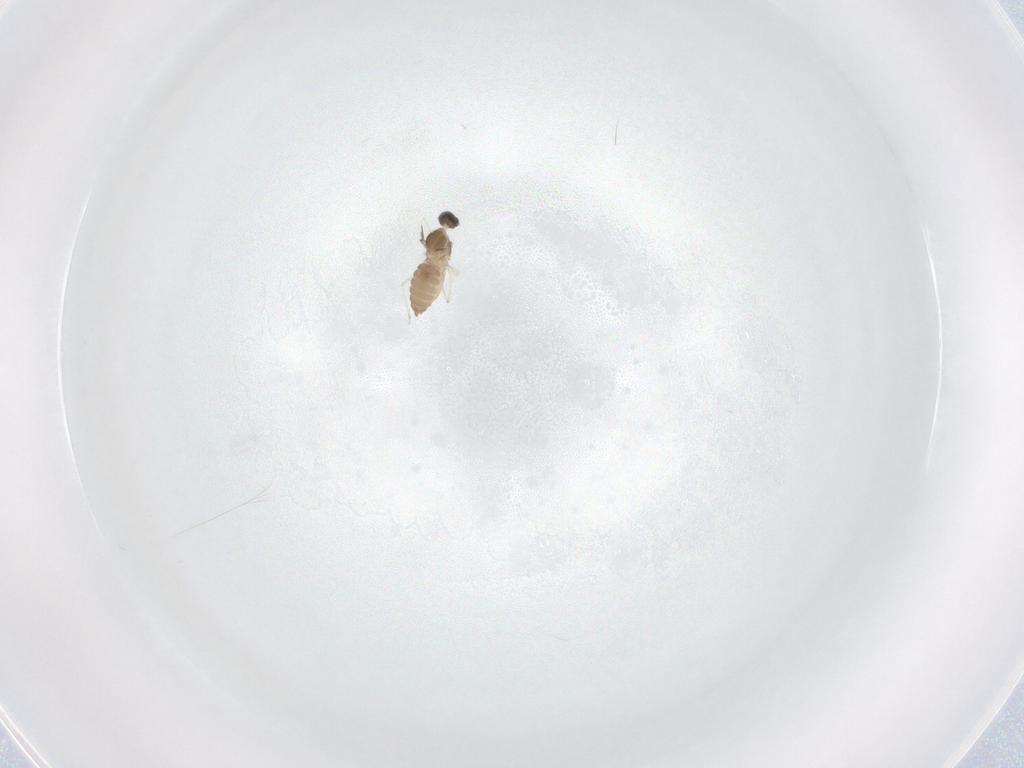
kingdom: Animalia
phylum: Arthropoda
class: Insecta
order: Diptera
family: Cecidomyiidae
